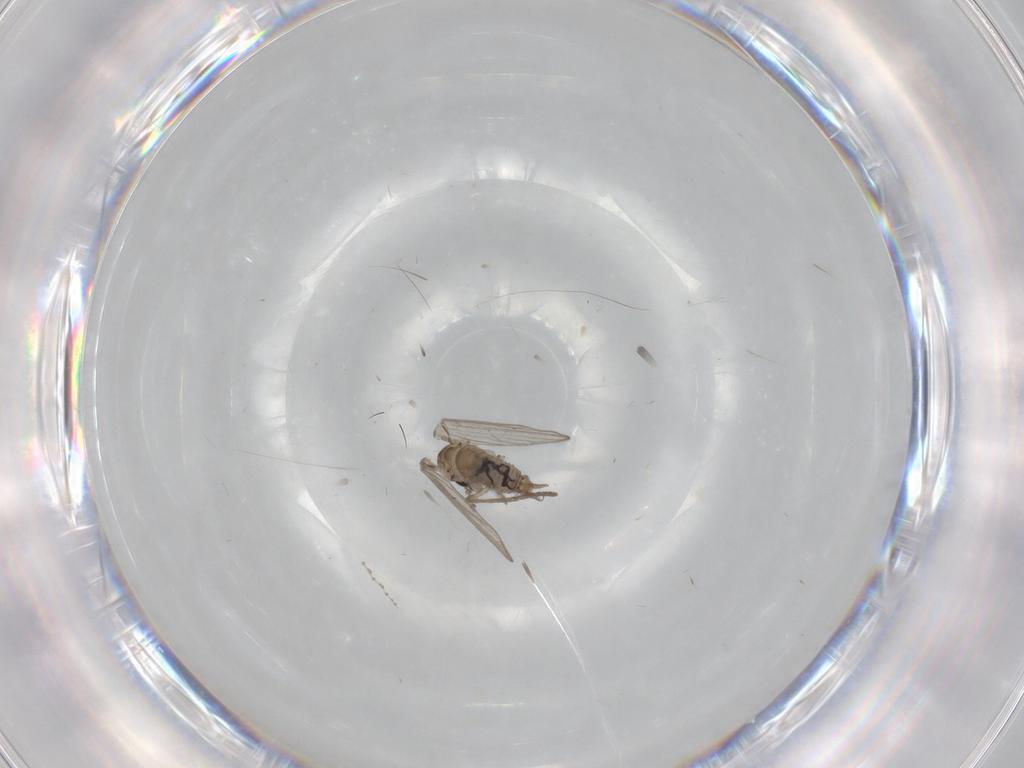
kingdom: Animalia
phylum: Arthropoda
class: Insecta
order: Diptera
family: Psychodidae
